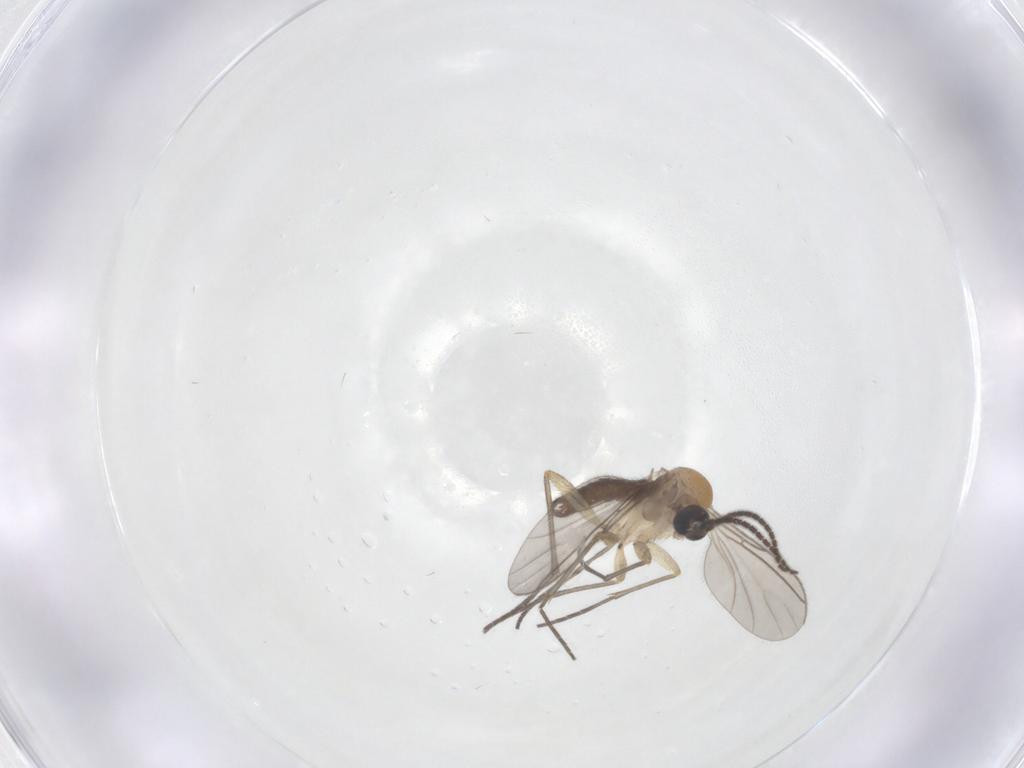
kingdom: Animalia
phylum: Arthropoda
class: Insecta
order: Diptera
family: Sciaridae
